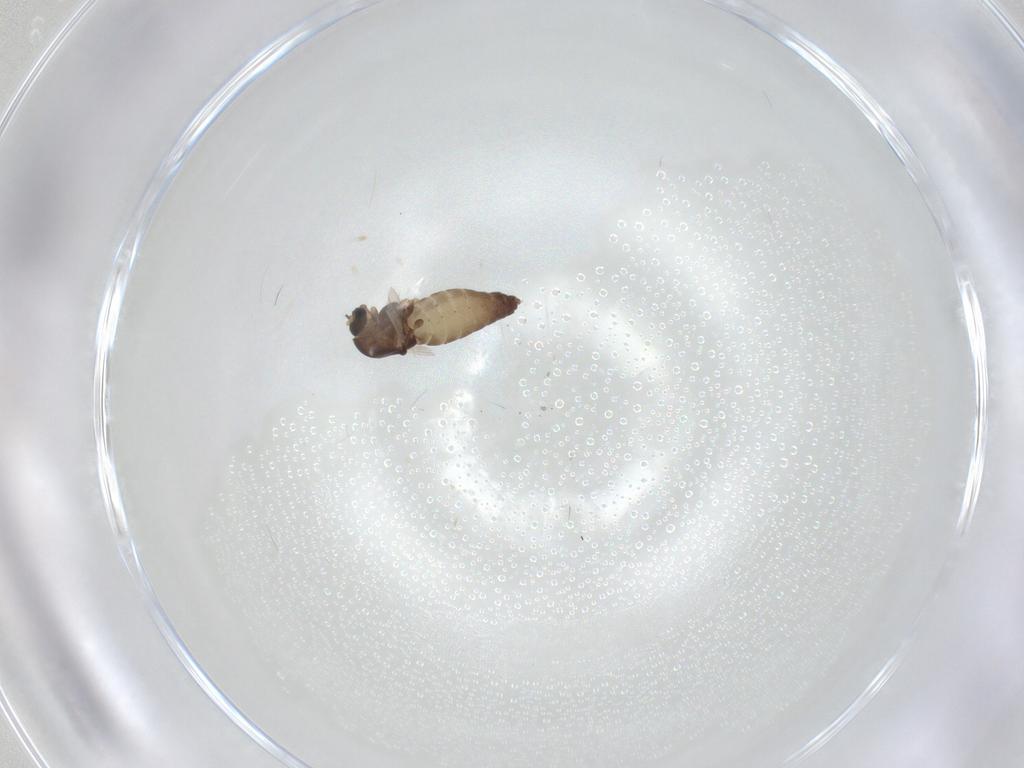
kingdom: Animalia
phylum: Arthropoda
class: Insecta
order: Diptera
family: Chironomidae
